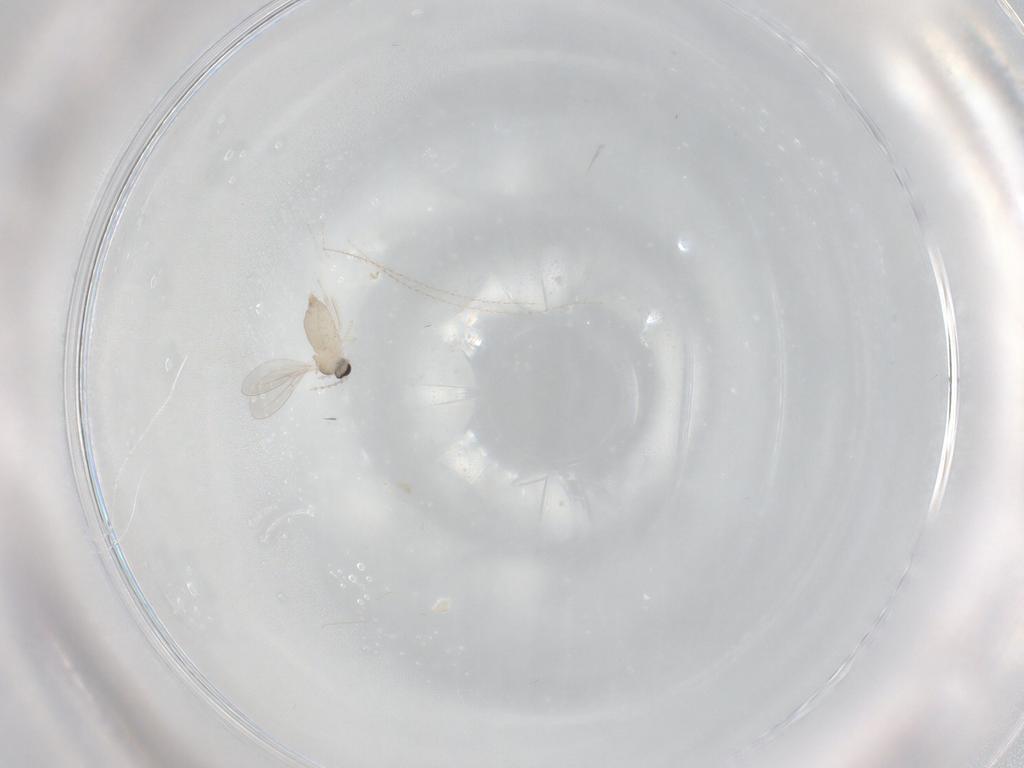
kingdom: Animalia
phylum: Arthropoda
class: Insecta
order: Diptera
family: Cecidomyiidae
